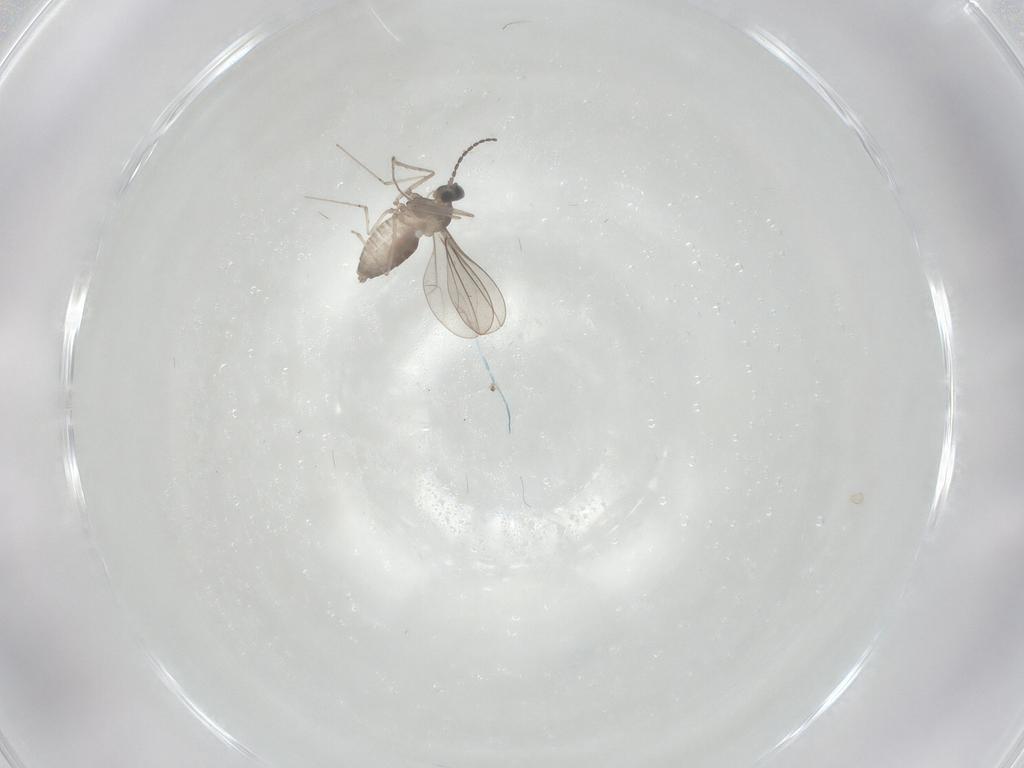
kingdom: Animalia
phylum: Arthropoda
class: Insecta
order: Diptera
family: Cecidomyiidae
